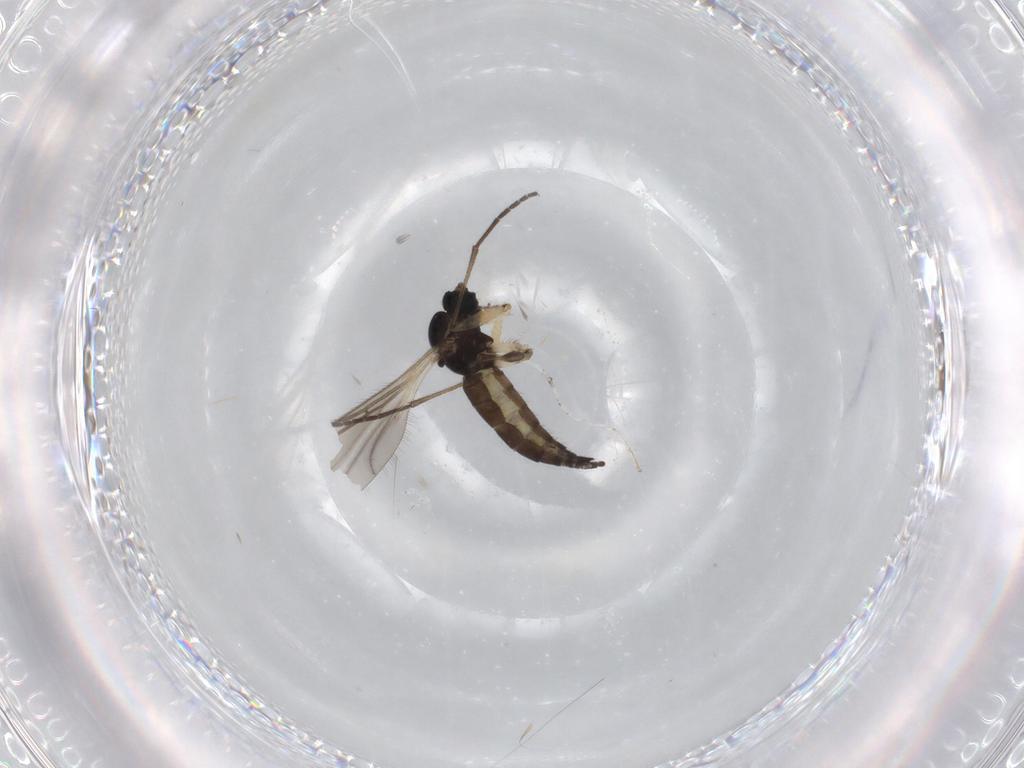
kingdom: Animalia
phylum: Arthropoda
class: Insecta
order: Diptera
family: Sciaridae
